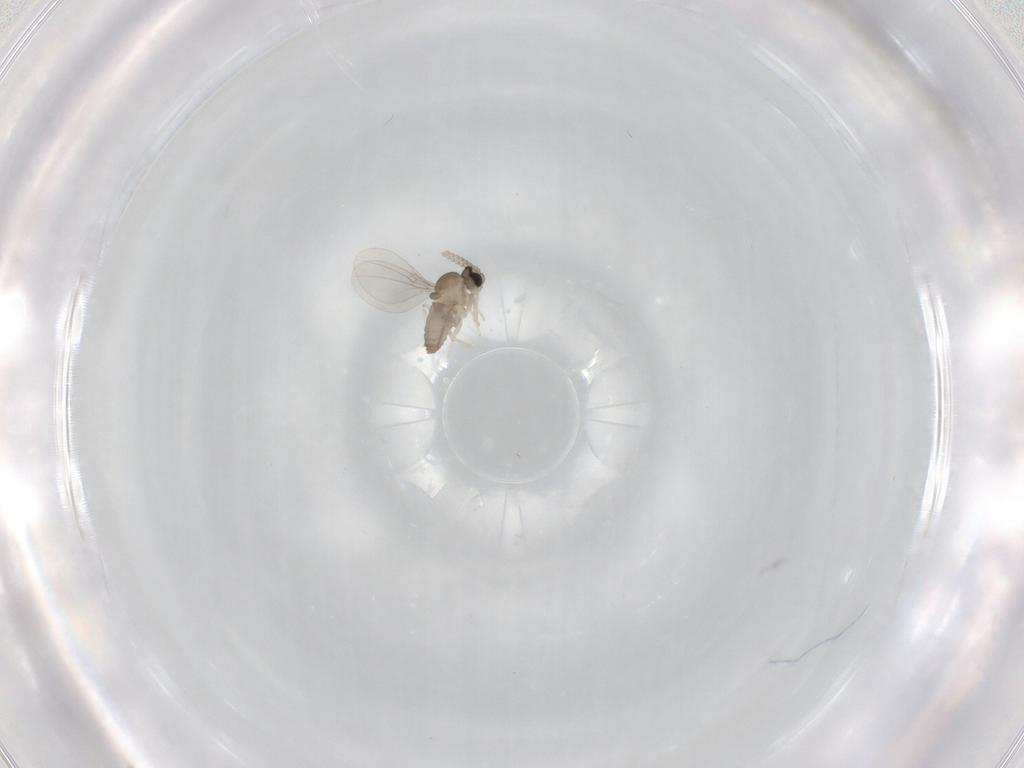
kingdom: Animalia
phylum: Arthropoda
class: Insecta
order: Diptera
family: Cecidomyiidae
